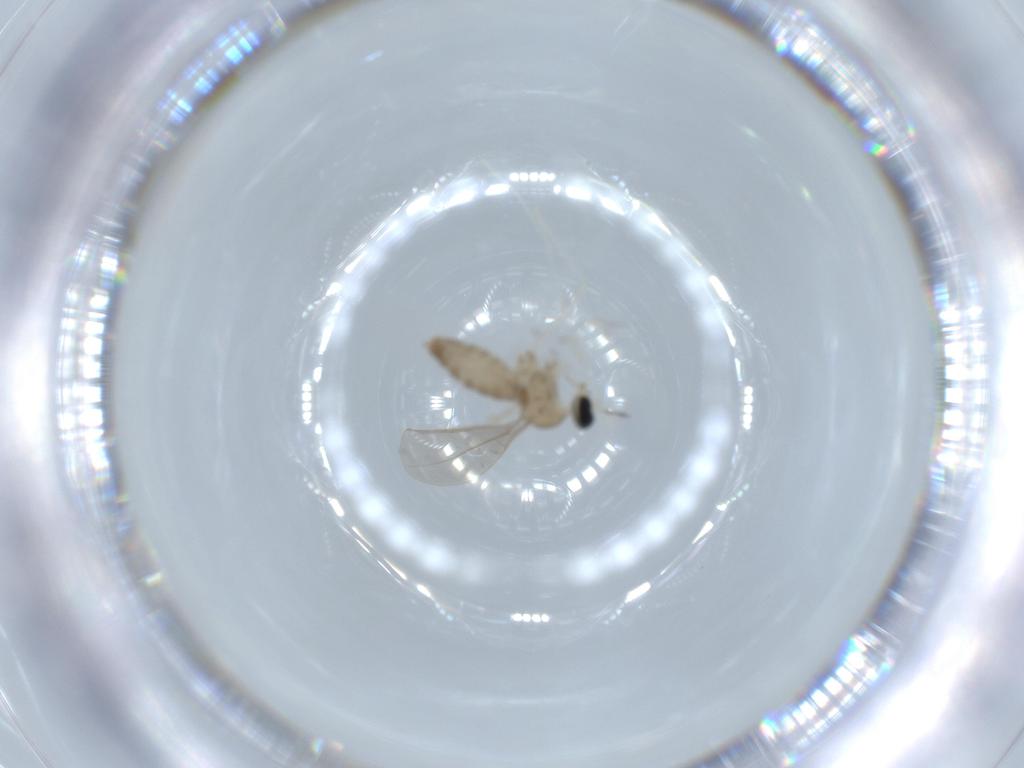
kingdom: Animalia
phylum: Arthropoda
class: Insecta
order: Diptera
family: Cecidomyiidae
